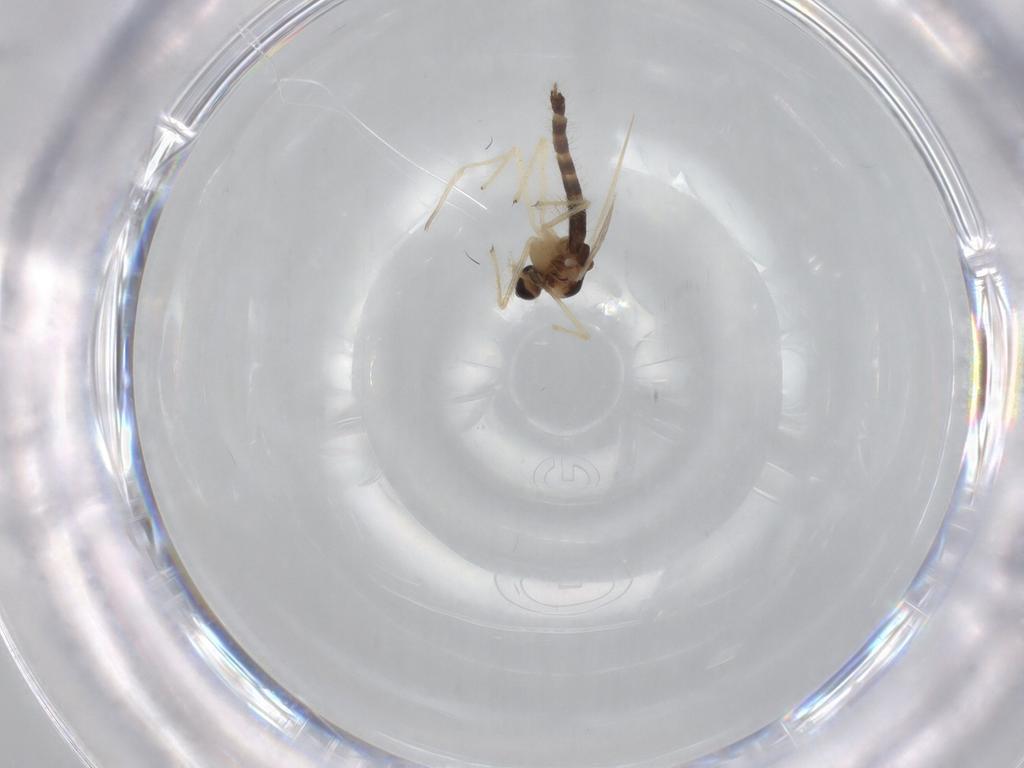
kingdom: Animalia
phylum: Arthropoda
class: Insecta
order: Diptera
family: Chironomidae
